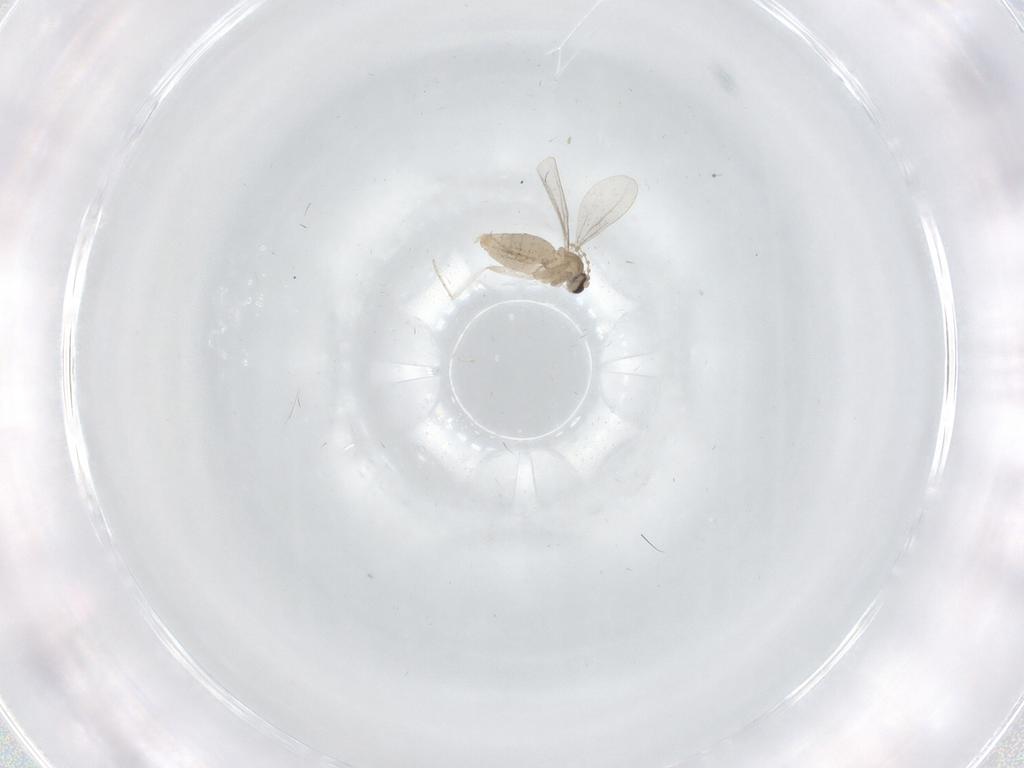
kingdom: Animalia
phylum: Arthropoda
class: Insecta
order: Diptera
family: Cecidomyiidae
